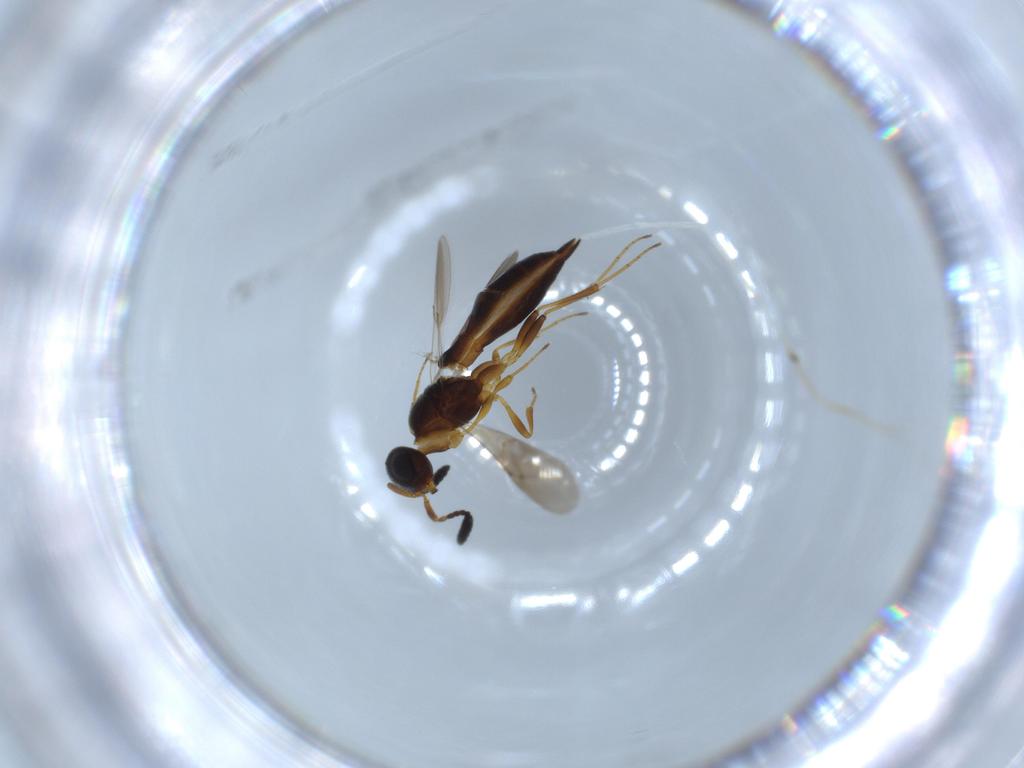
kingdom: Animalia
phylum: Arthropoda
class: Insecta
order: Hymenoptera
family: Scelionidae
